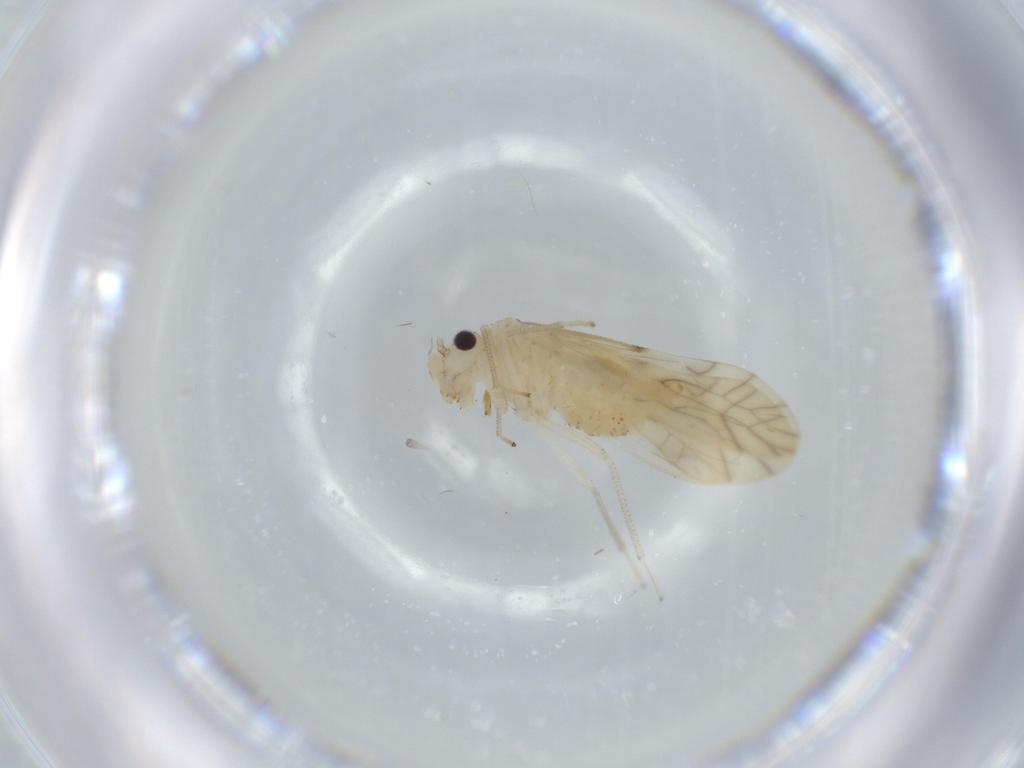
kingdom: Animalia
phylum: Arthropoda
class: Insecta
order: Psocodea
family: Caeciliusidae
